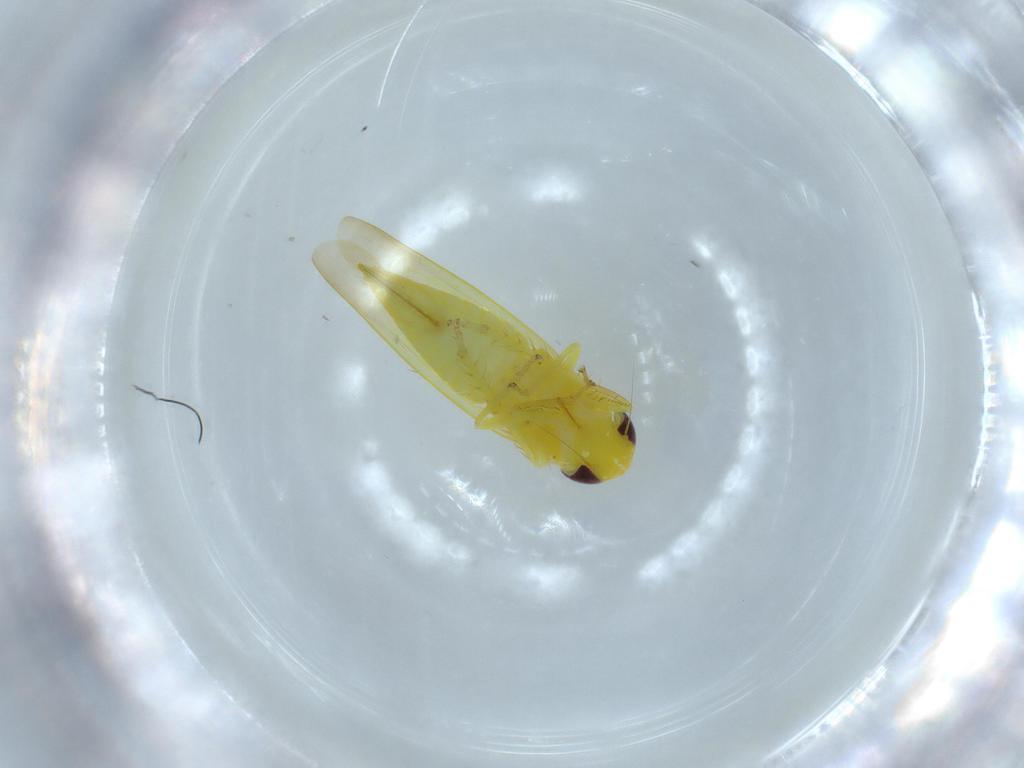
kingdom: Animalia
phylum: Arthropoda
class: Insecta
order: Hemiptera
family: Cicadellidae
